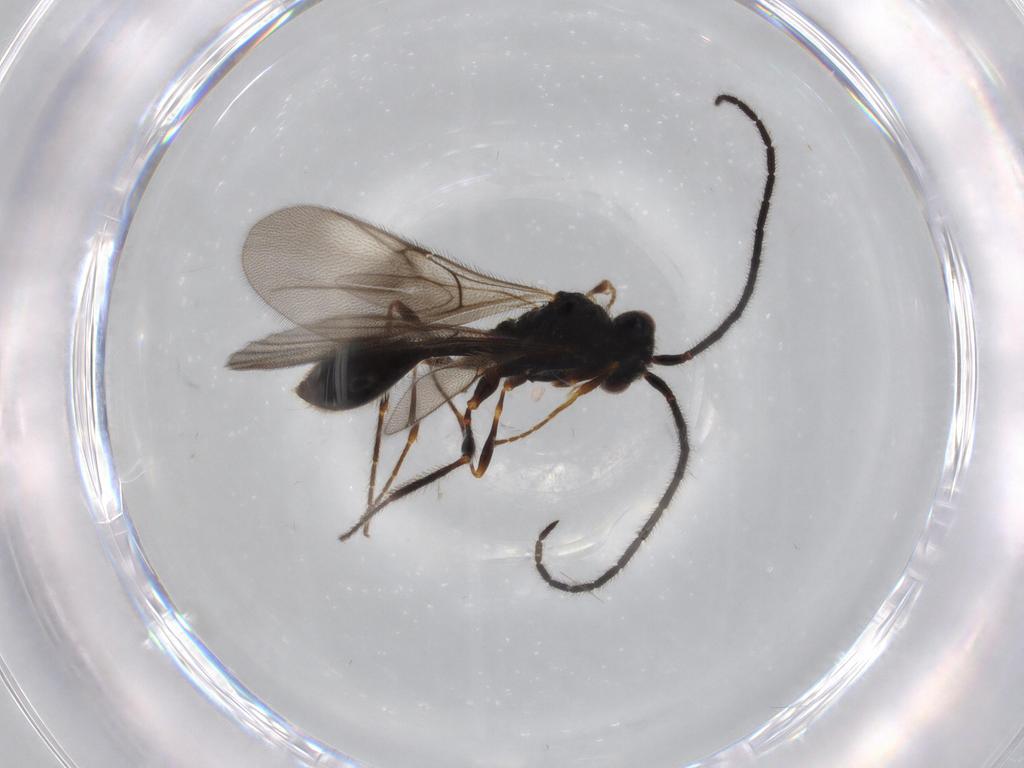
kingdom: Animalia
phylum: Arthropoda
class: Insecta
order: Hymenoptera
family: Diapriidae
